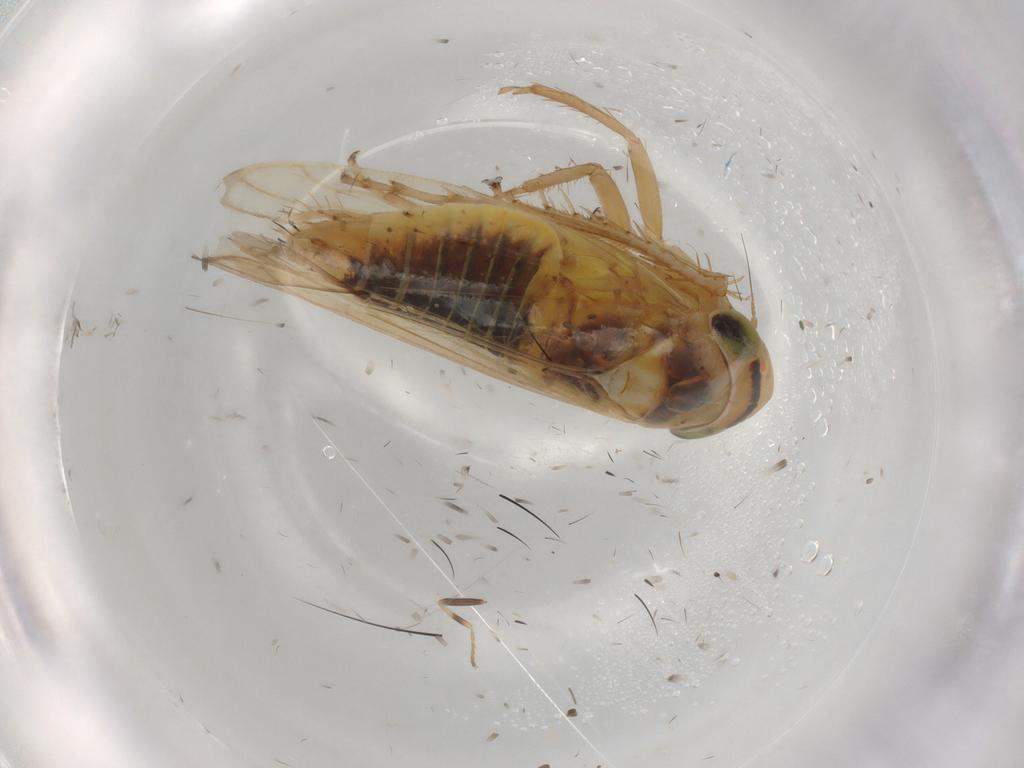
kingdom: Animalia
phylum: Arthropoda
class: Insecta
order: Hemiptera
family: Cicadellidae
